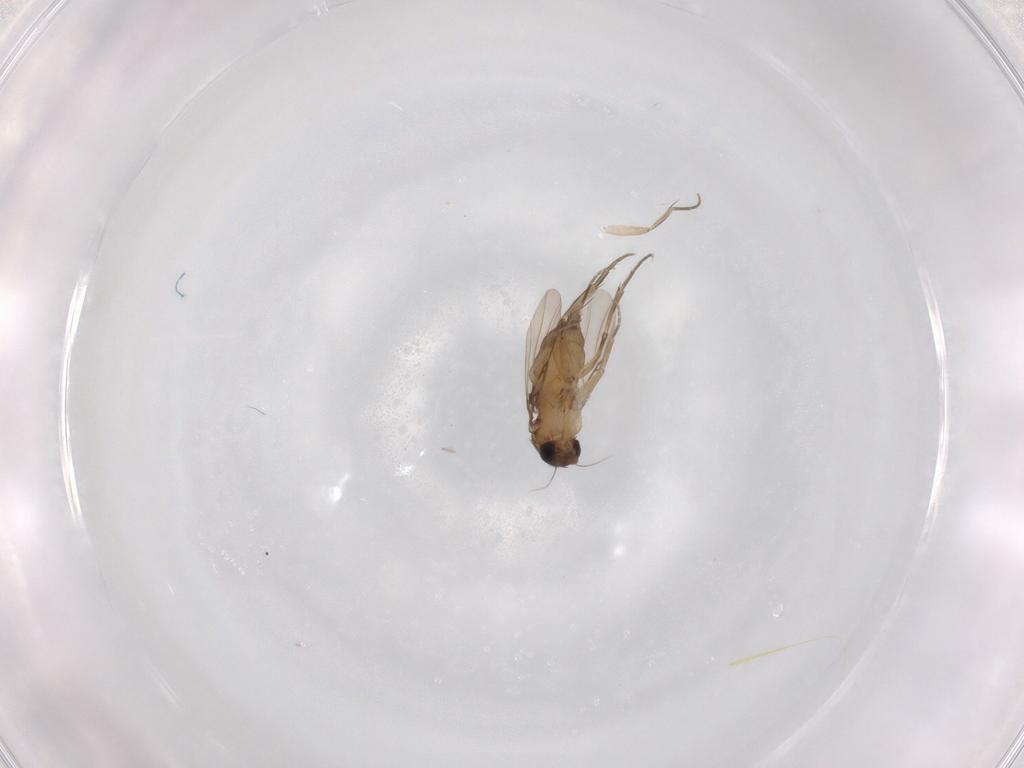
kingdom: Animalia
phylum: Arthropoda
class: Insecta
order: Diptera
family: Phoridae
